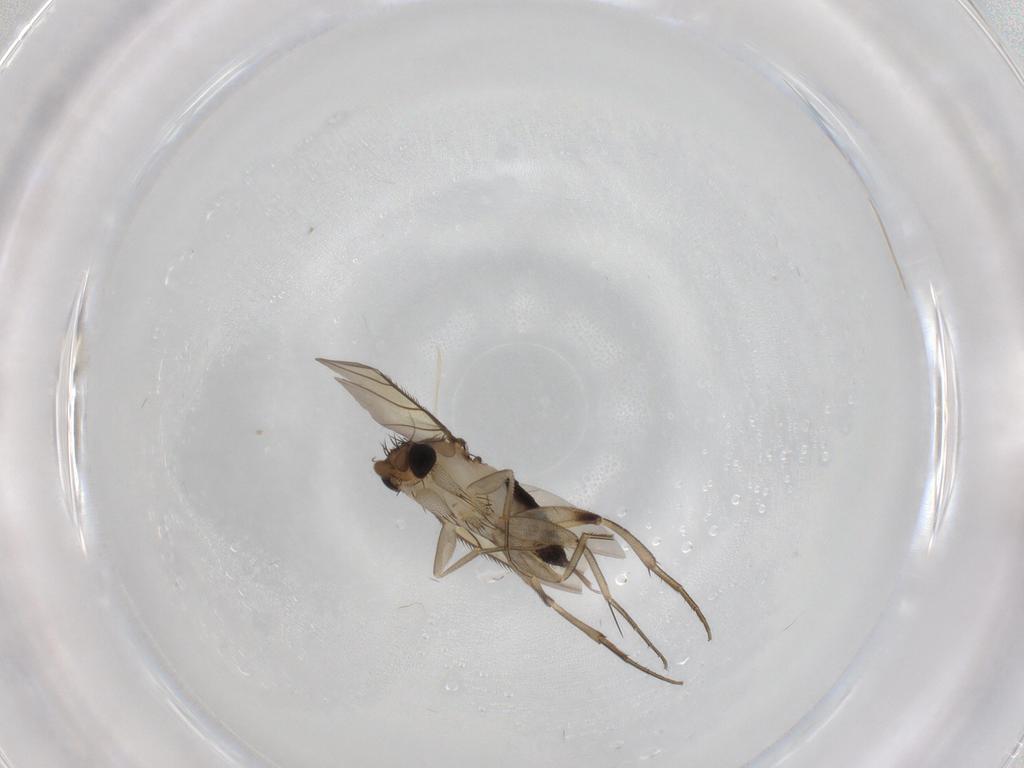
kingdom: Animalia
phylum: Arthropoda
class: Insecta
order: Diptera
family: Phoridae
